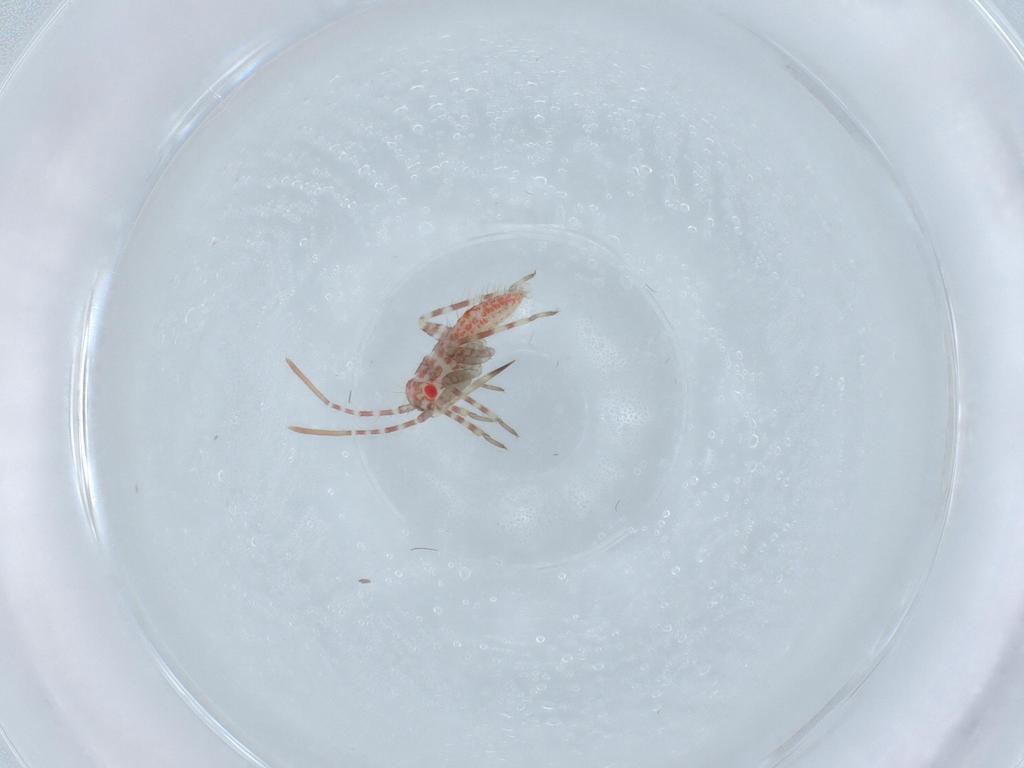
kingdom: Animalia
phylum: Arthropoda
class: Insecta
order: Hemiptera
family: Miridae
